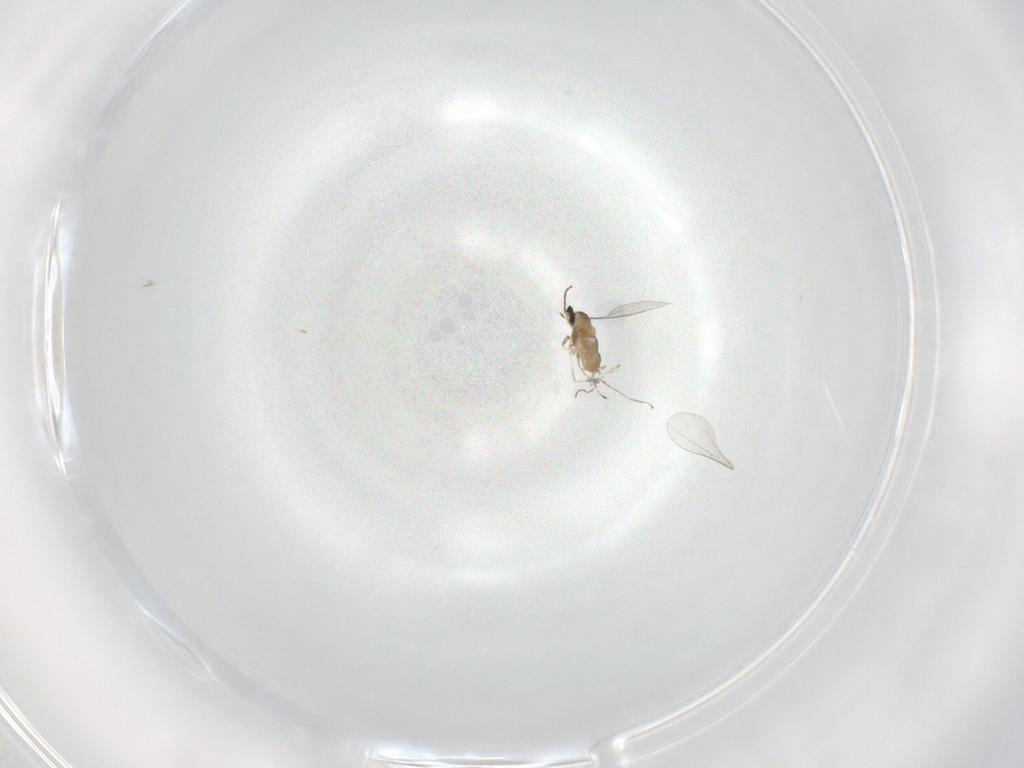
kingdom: Animalia
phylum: Arthropoda
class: Insecta
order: Diptera
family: Cecidomyiidae
